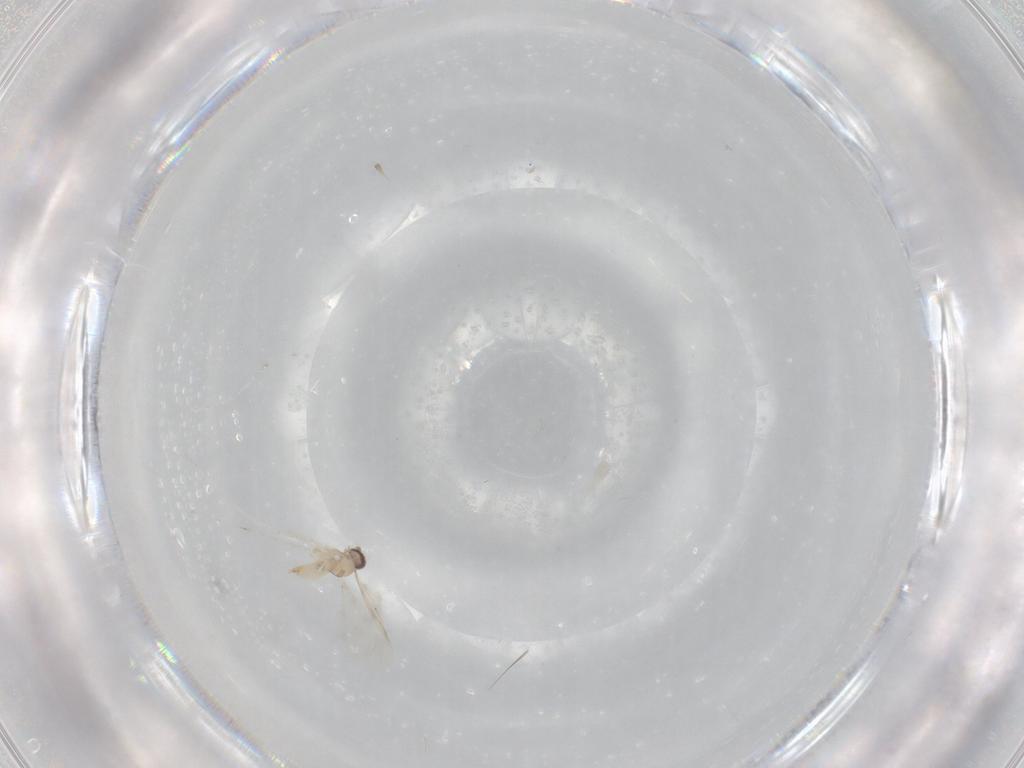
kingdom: Animalia
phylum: Arthropoda
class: Insecta
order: Diptera
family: Cecidomyiidae
